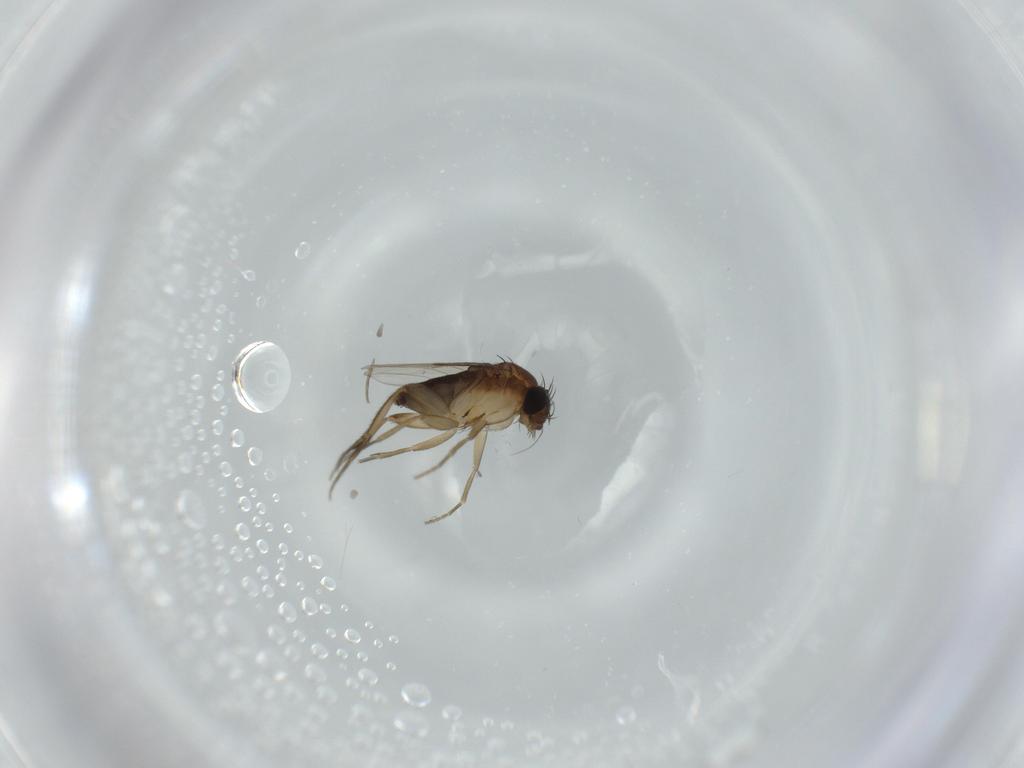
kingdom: Animalia
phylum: Arthropoda
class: Insecta
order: Diptera
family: Phoridae
